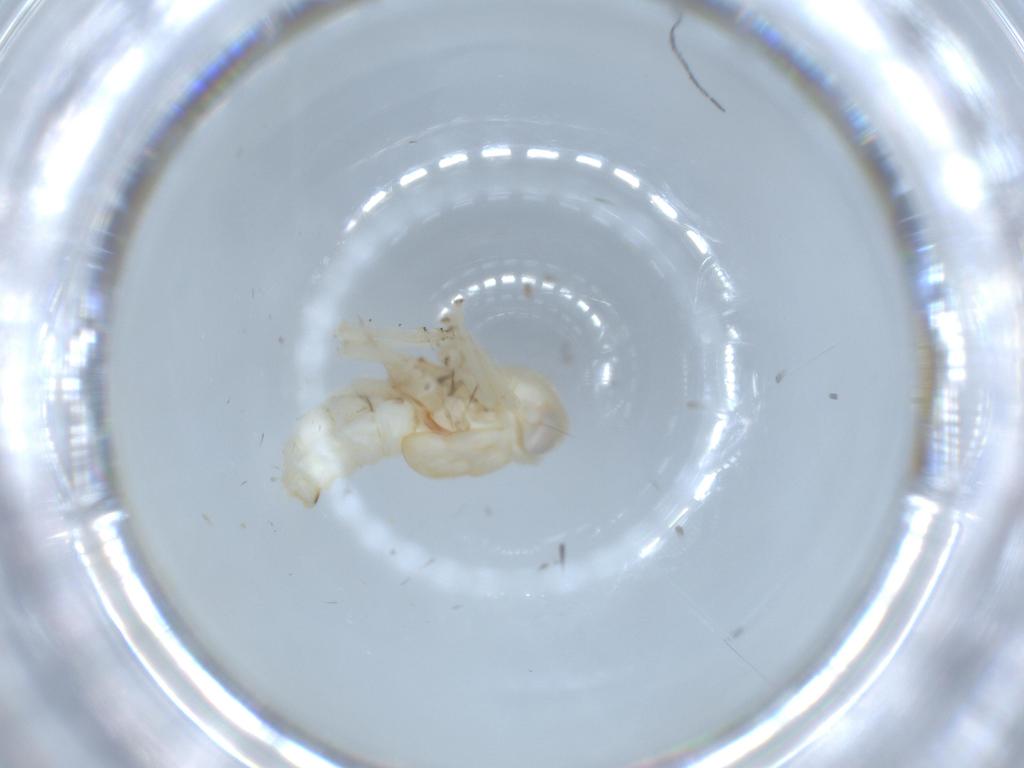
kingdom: Animalia
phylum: Arthropoda
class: Insecta
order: Hemiptera
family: Nogodinidae
